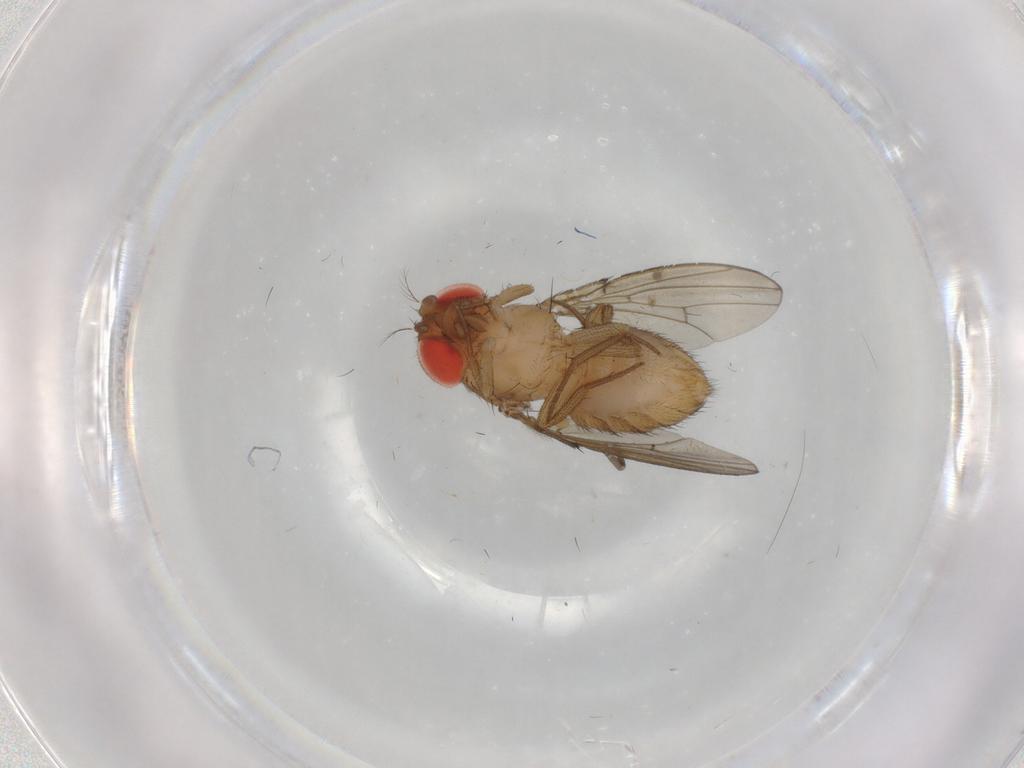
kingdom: Animalia
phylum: Arthropoda
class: Insecta
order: Diptera
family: Drosophilidae
